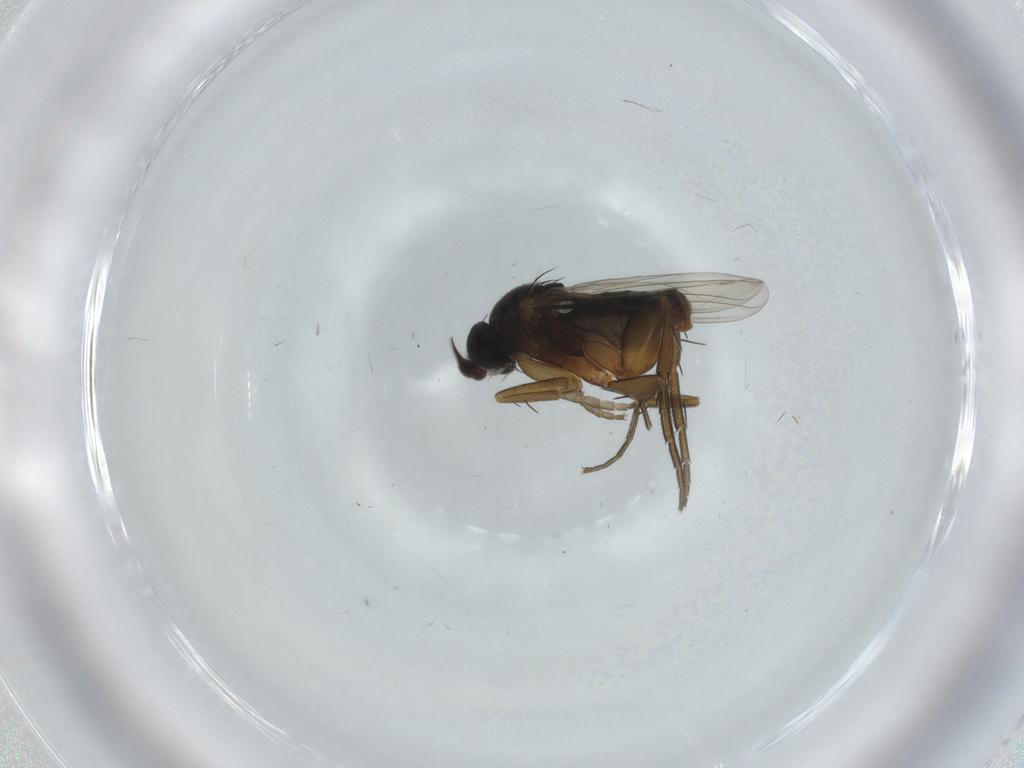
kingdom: Animalia
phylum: Arthropoda
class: Insecta
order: Diptera
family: Phoridae
